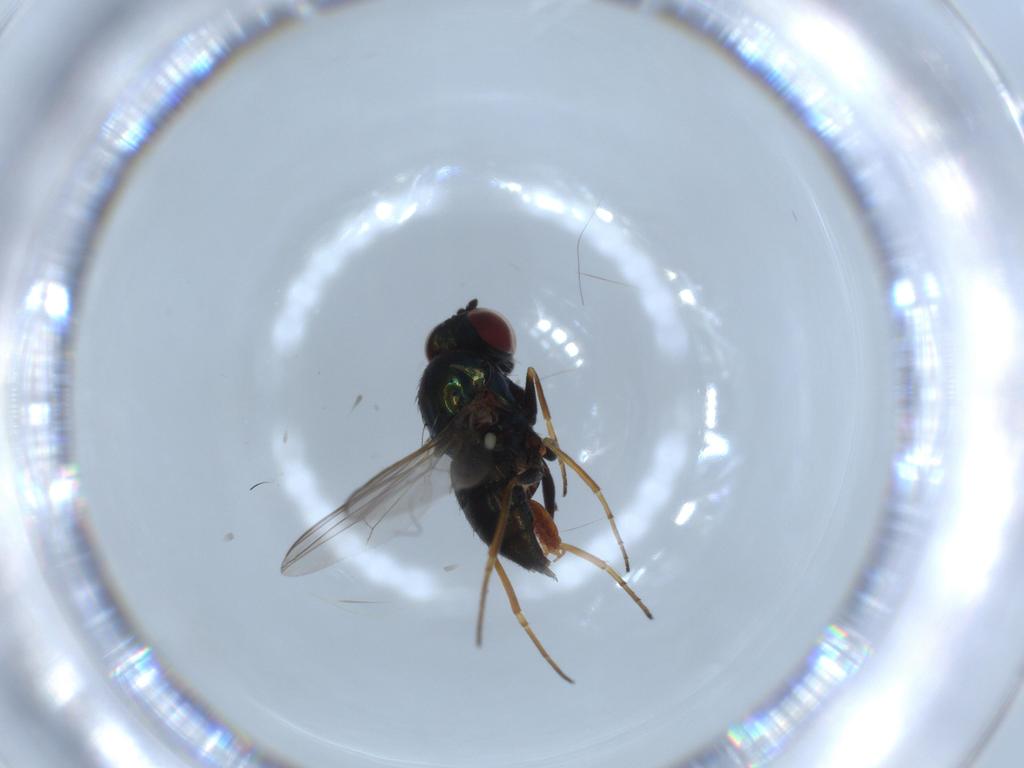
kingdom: Animalia
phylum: Arthropoda
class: Insecta
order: Diptera
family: Dolichopodidae
